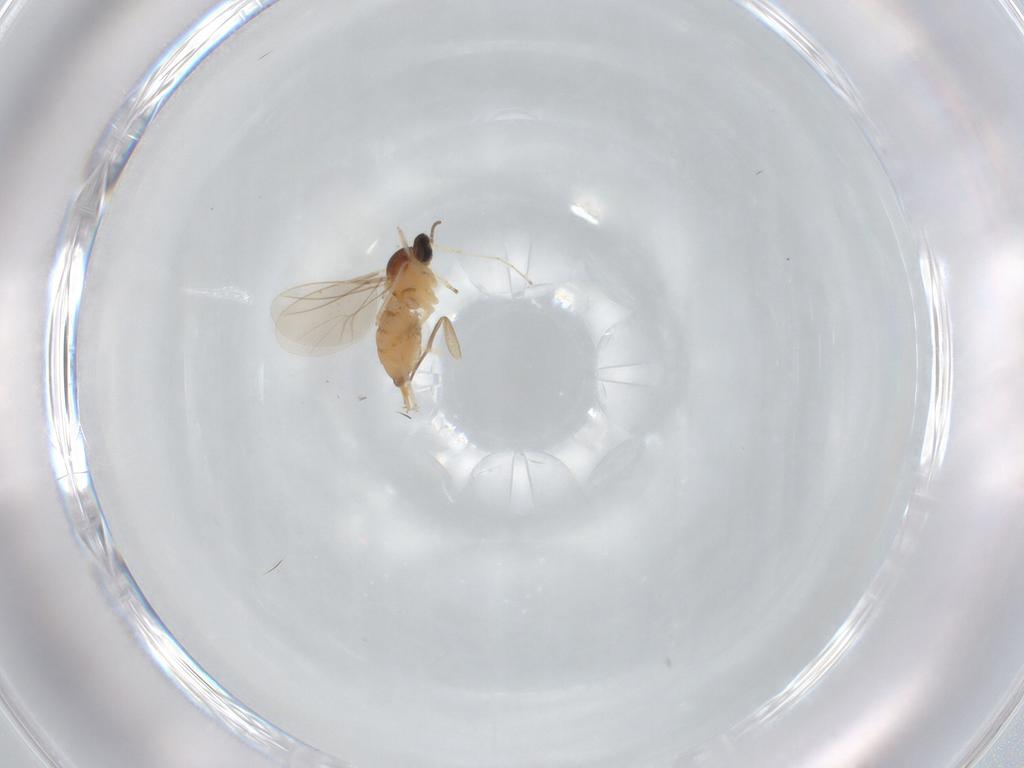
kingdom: Animalia
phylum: Arthropoda
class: Insecta
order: Diptera
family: Cecidomyiidae
